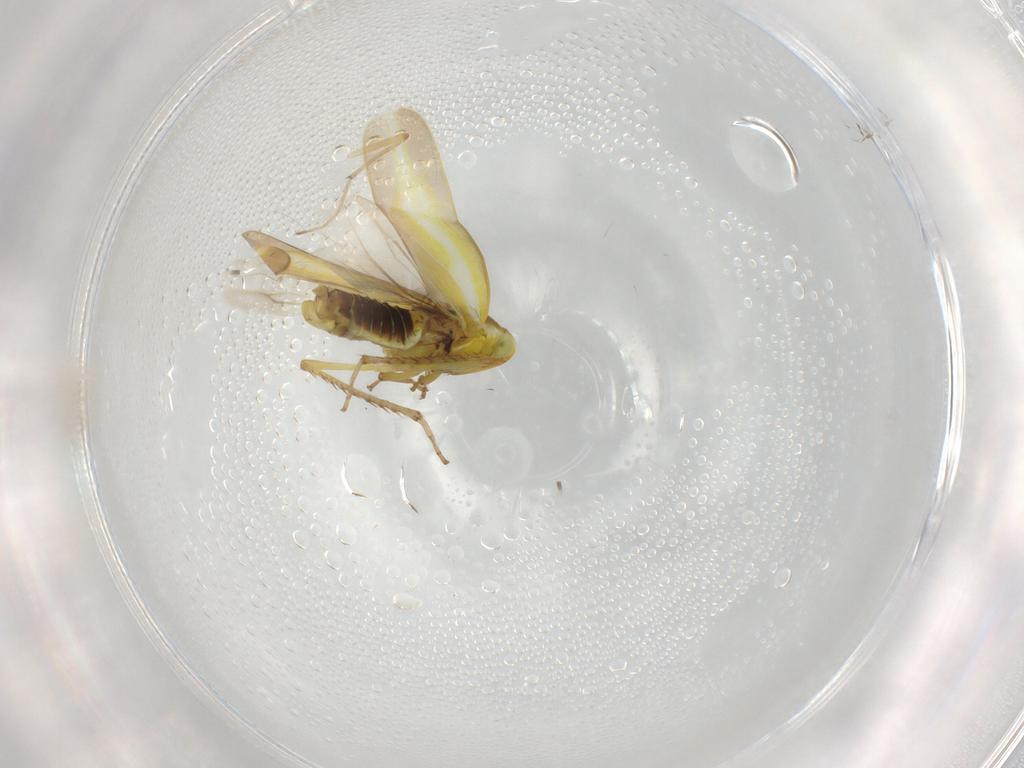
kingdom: Animalia
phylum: Arthropoda
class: Insecta
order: Hemiptera
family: Cicadellidae
